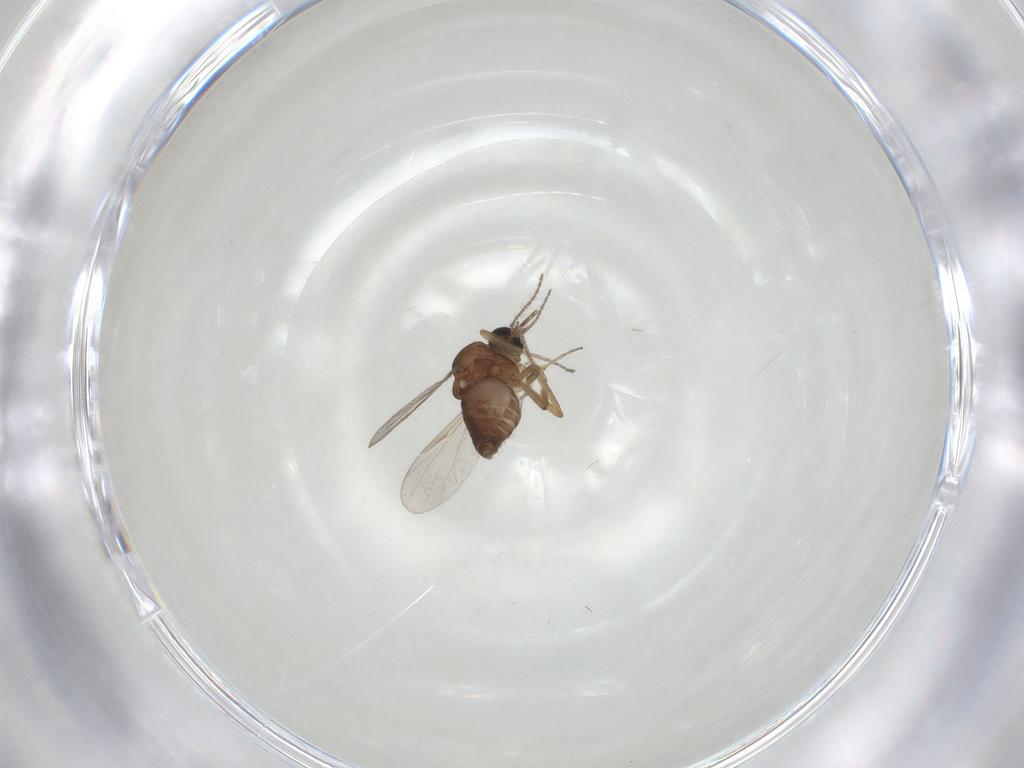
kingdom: Animalia
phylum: Arthropoda
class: Insecta
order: Diptera
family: Ceratopogonidae
